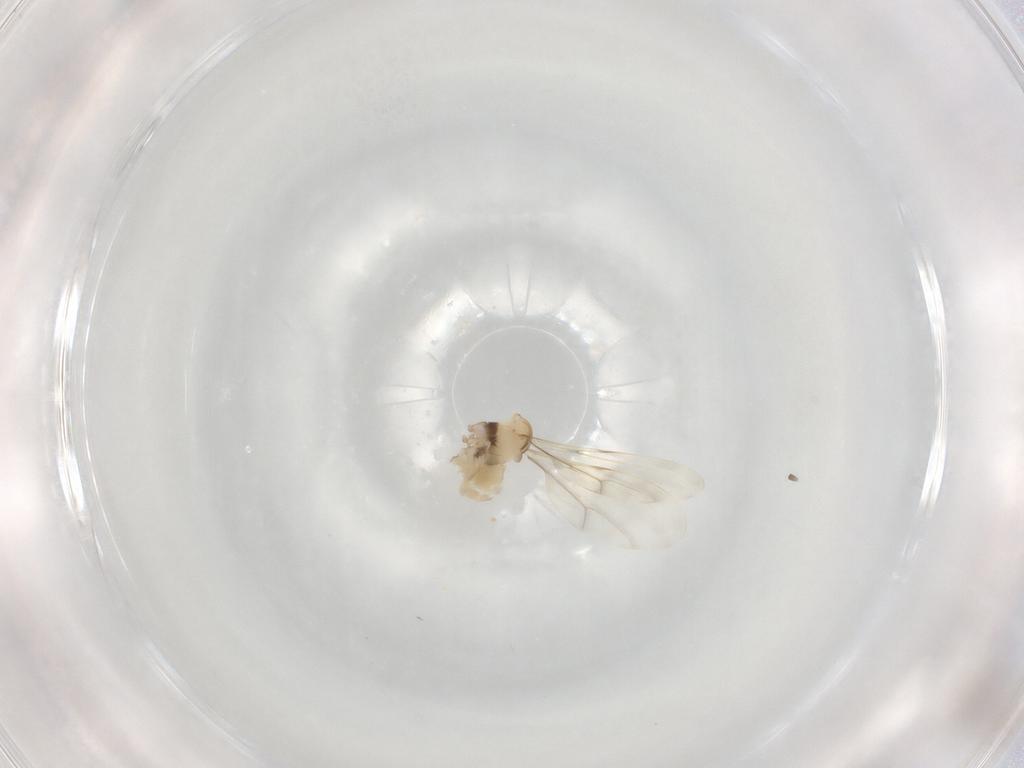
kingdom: Animalia
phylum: Arthropoda
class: Insecta
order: Diptera
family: Cecidomyiidae
